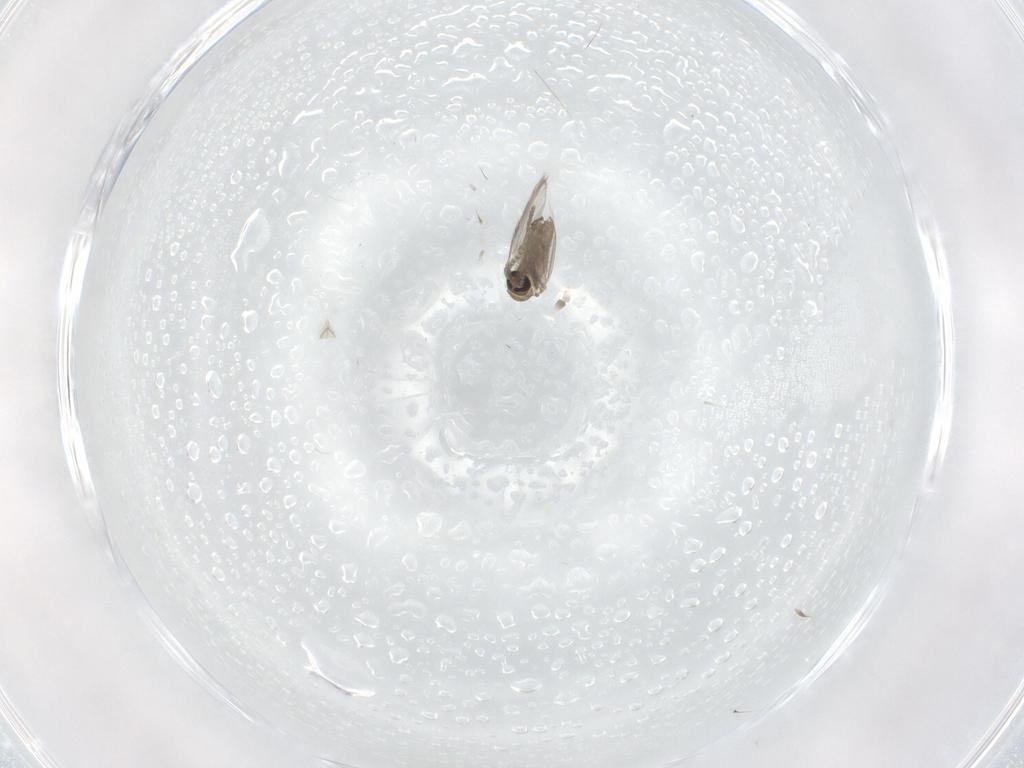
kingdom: Animalia
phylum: Arthropoda
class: Insecta
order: Diptera
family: Psychodidae
